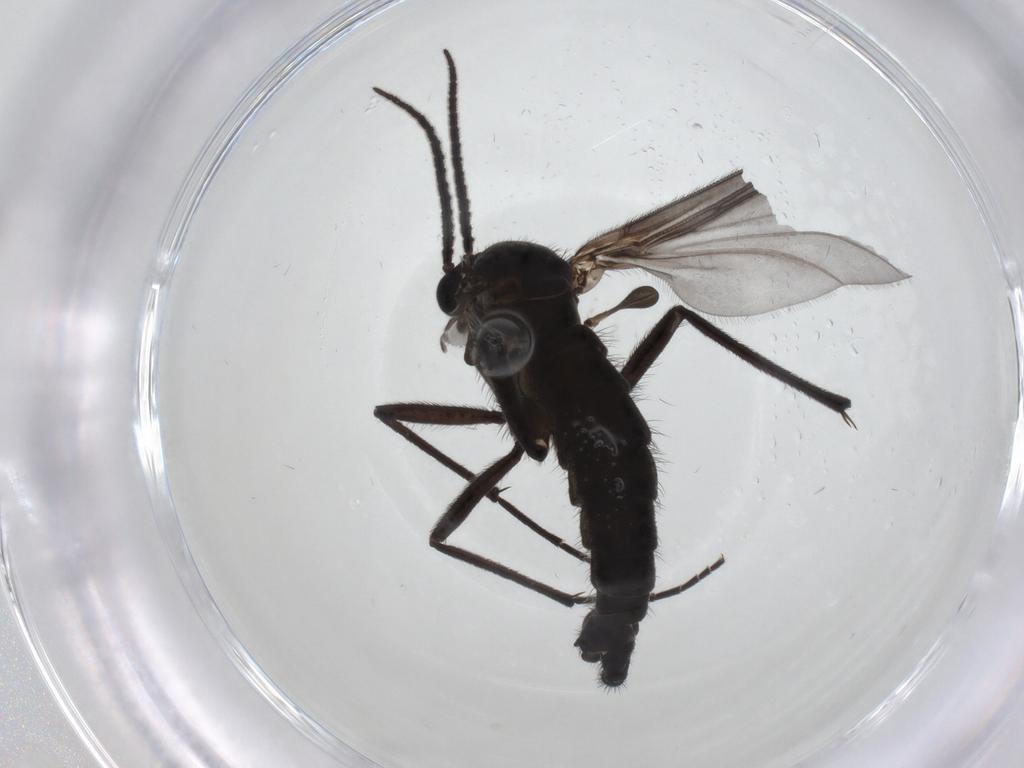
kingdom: Animalia
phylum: Arthropoda
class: Insecta
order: Diptera
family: Sciaridae
